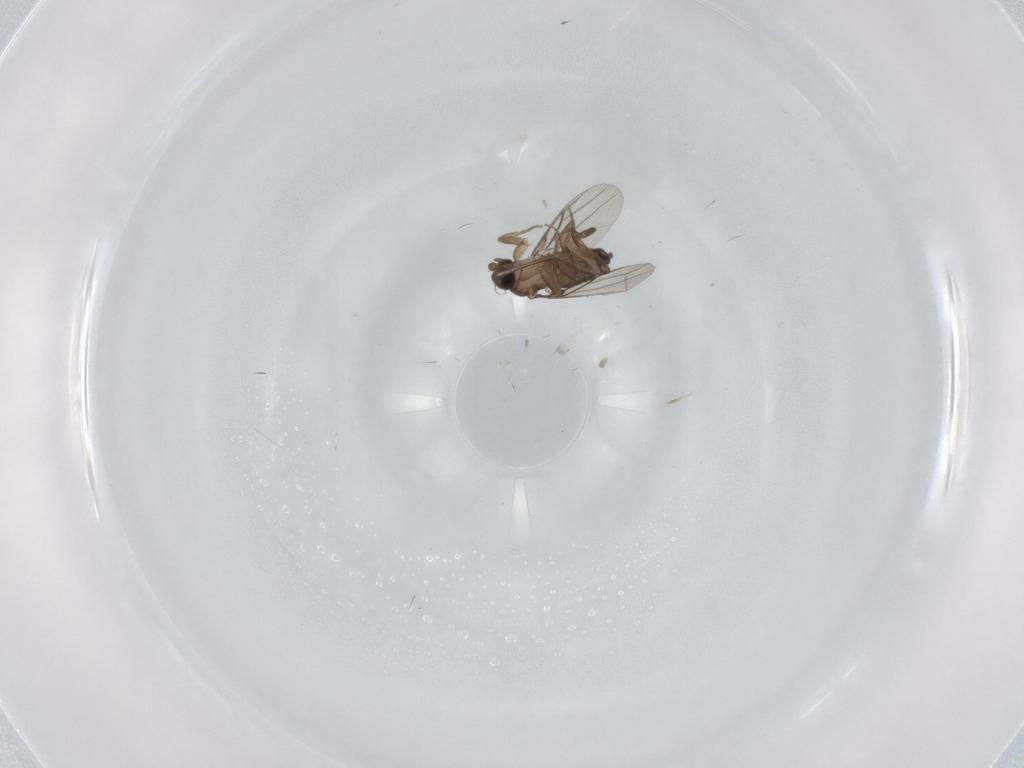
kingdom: Animalia
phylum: Arthropoda
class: Insecta
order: Diptera
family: Phoridae
